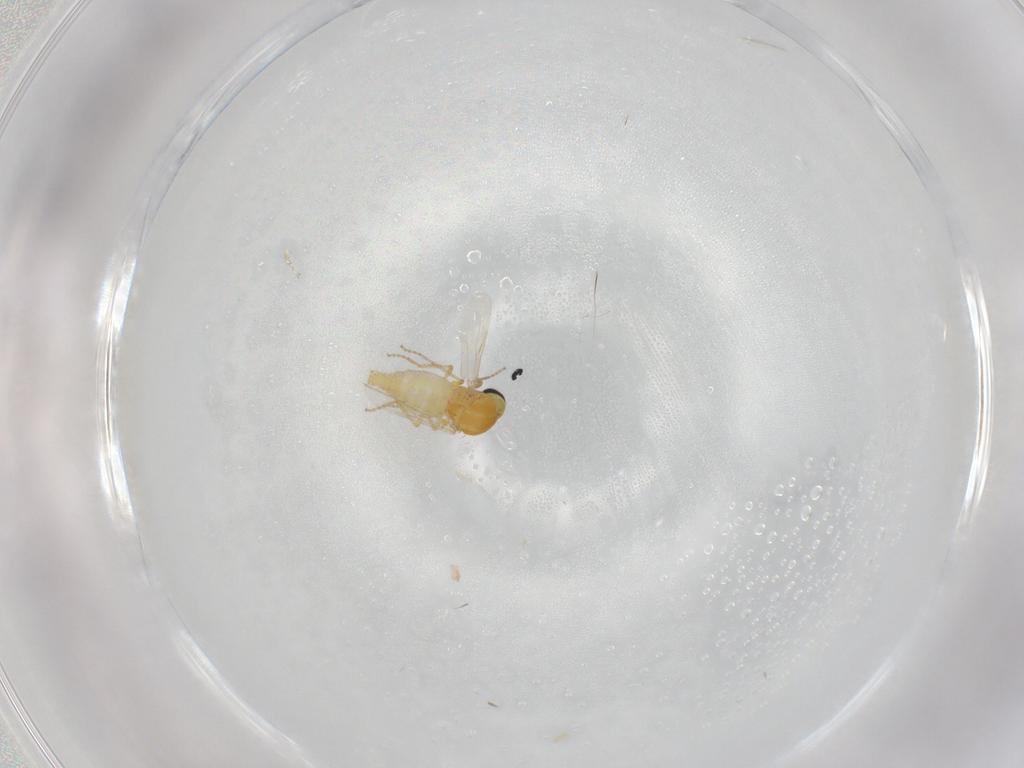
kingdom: Animalia
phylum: Arthropoda
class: Insecta
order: Diptera
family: Ceratopogonidae
